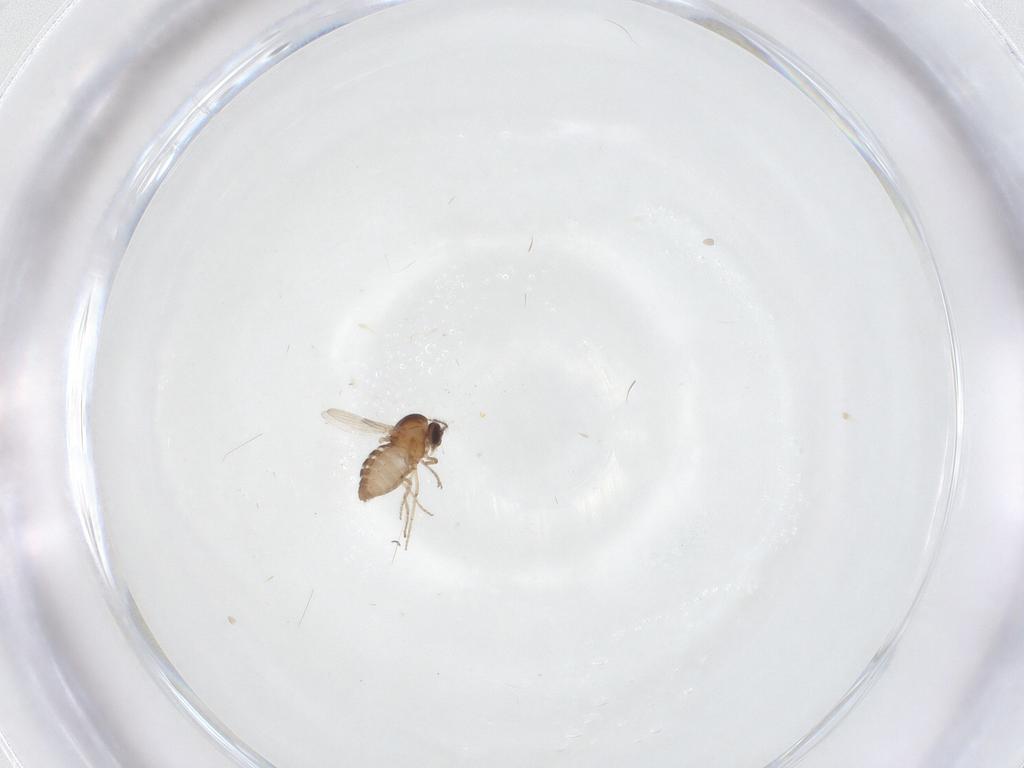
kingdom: Animalia
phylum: Arthropoda
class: Insecta
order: Diptera
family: Ceratopogonidae
